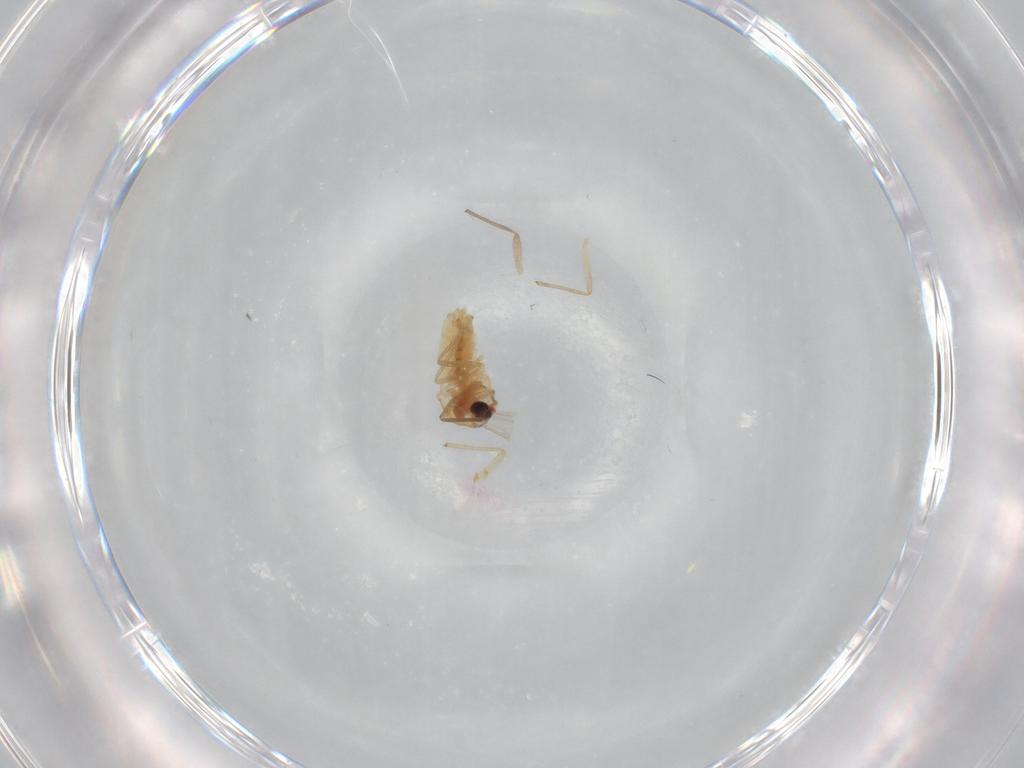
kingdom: Animalia
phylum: Arthropoda
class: Insecta
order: Diptera
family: Chironomidae
